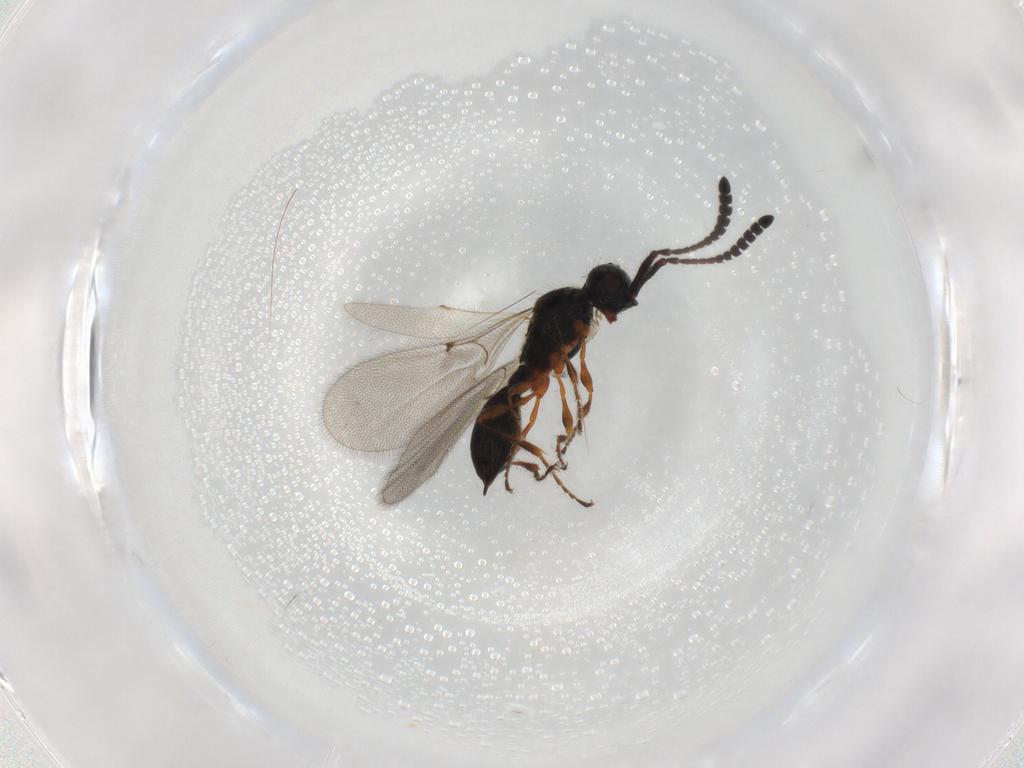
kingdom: Animalia
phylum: Arthropoda
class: Insecta
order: Hymenoptera
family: Diapriidae
